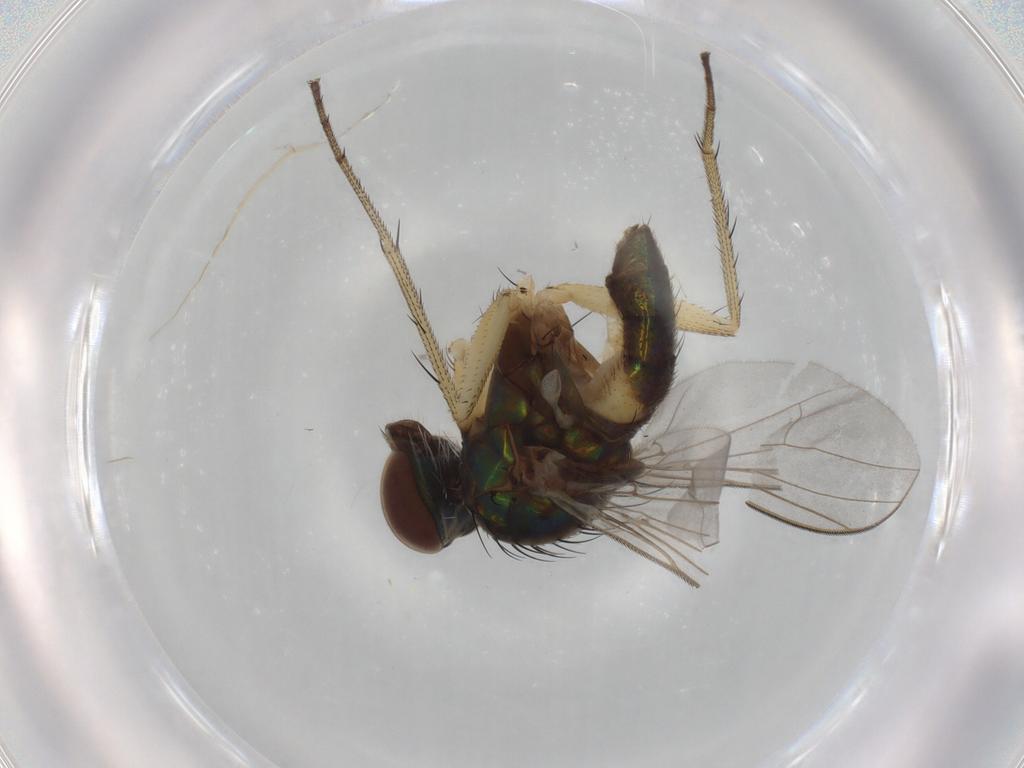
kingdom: Animalia
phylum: Arthropoda
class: Insecta
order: Diptera
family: Cecidomyiidae
